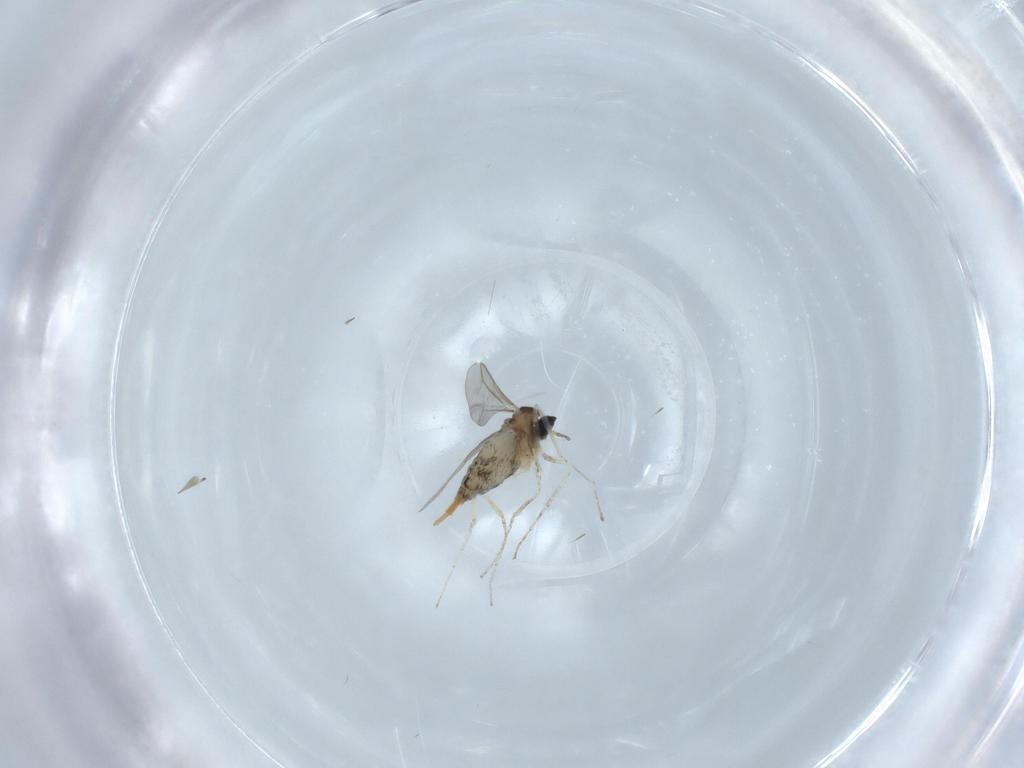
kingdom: Animalia
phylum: Arthropoda
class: Insecta
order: Diptera
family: Cecidomyiidae
